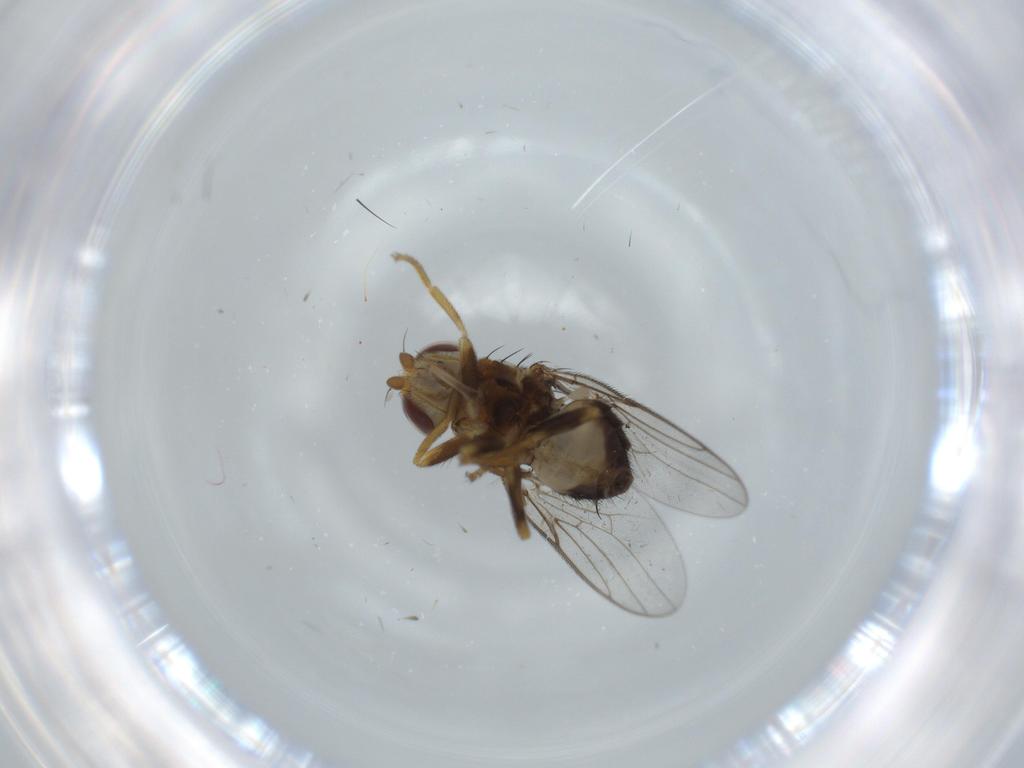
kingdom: Animalia
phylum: Arthropoda
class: Insecta
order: Diptera
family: Chloropidae
